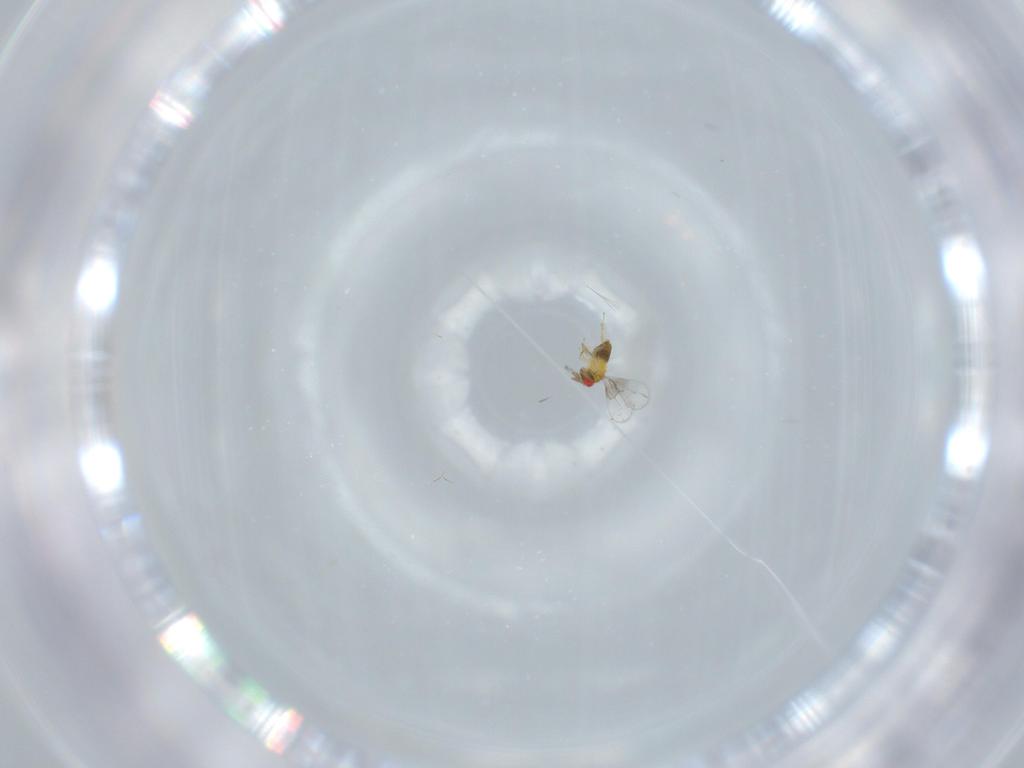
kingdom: Animalia
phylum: Arthropoda
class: Insecta
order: Hymenoptera
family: Trichogrammatidae
